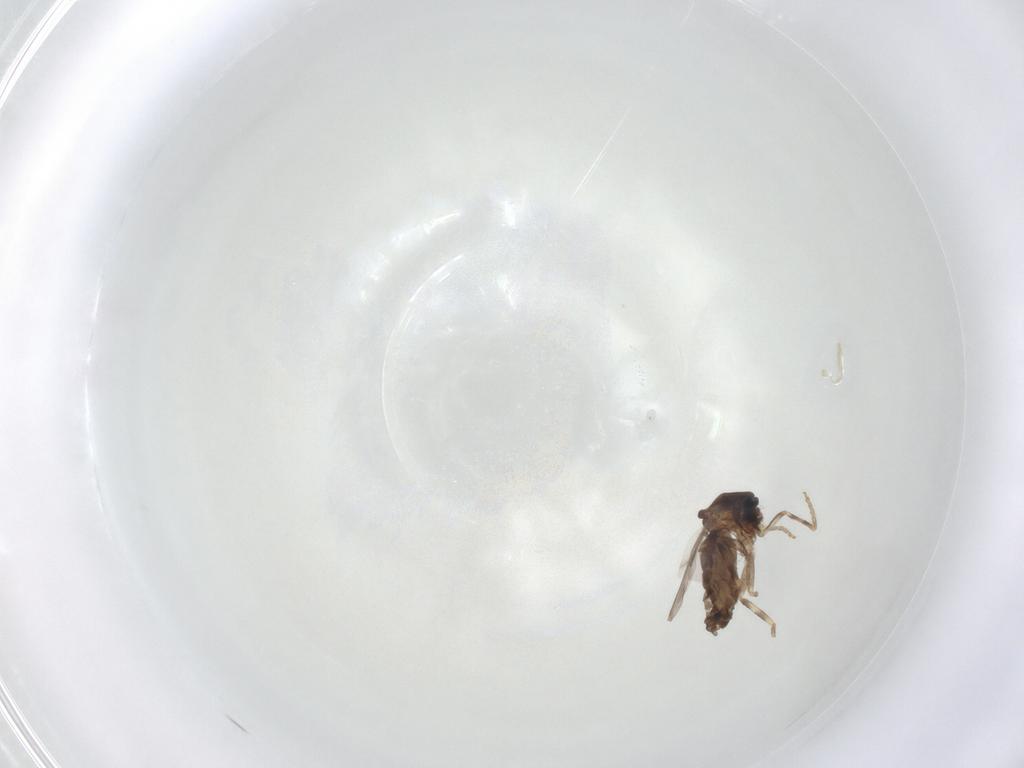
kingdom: Animalia
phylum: Arthropoda
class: Insecta
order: Diptera
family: Ceratopogonidae
